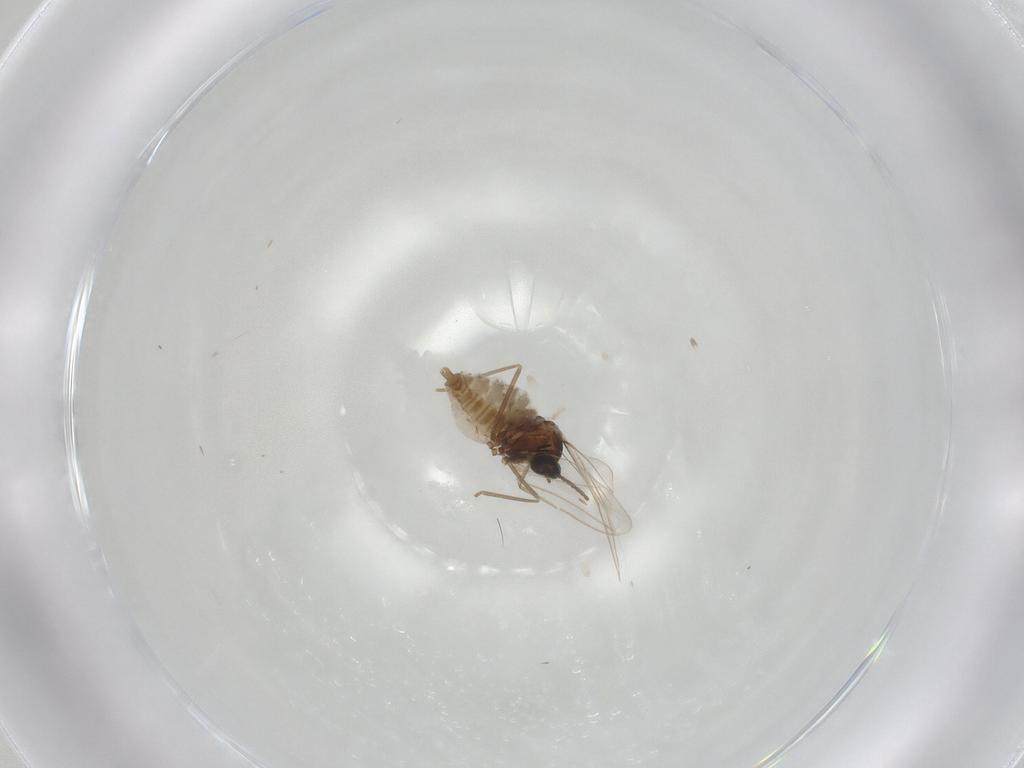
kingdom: Animalia
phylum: Arthropoda
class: Insecta
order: Diptera
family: Cecidomyiidae
